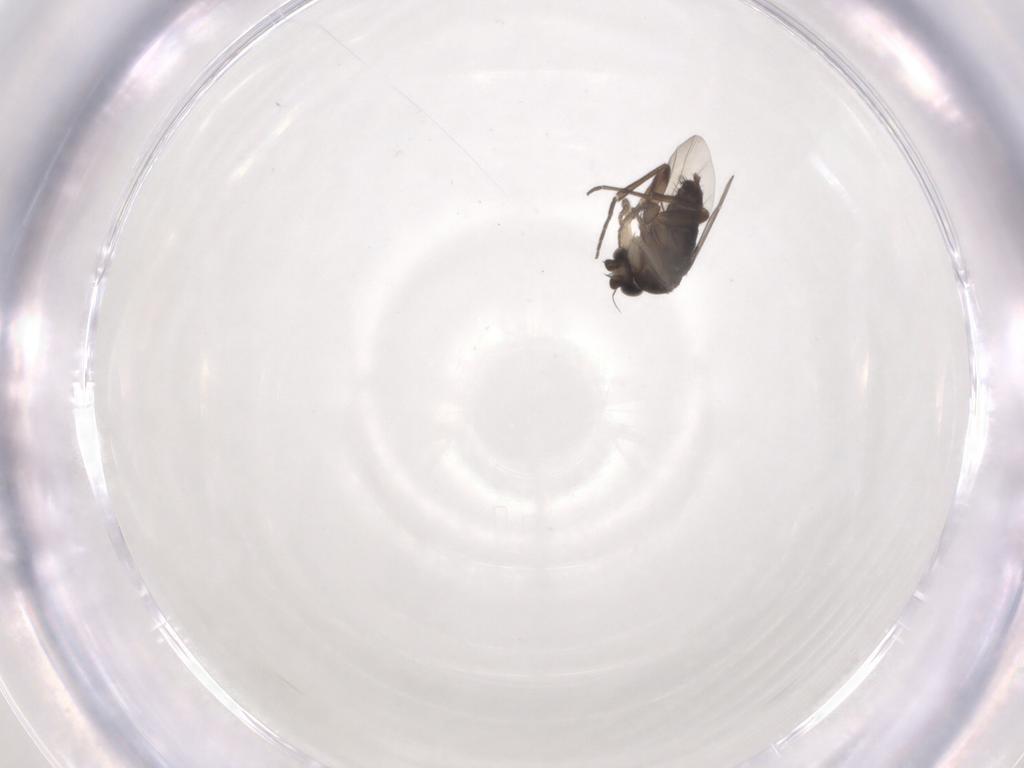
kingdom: Animalia
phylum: Arthropoda
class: Insecta
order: Diptera
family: Phoridae
